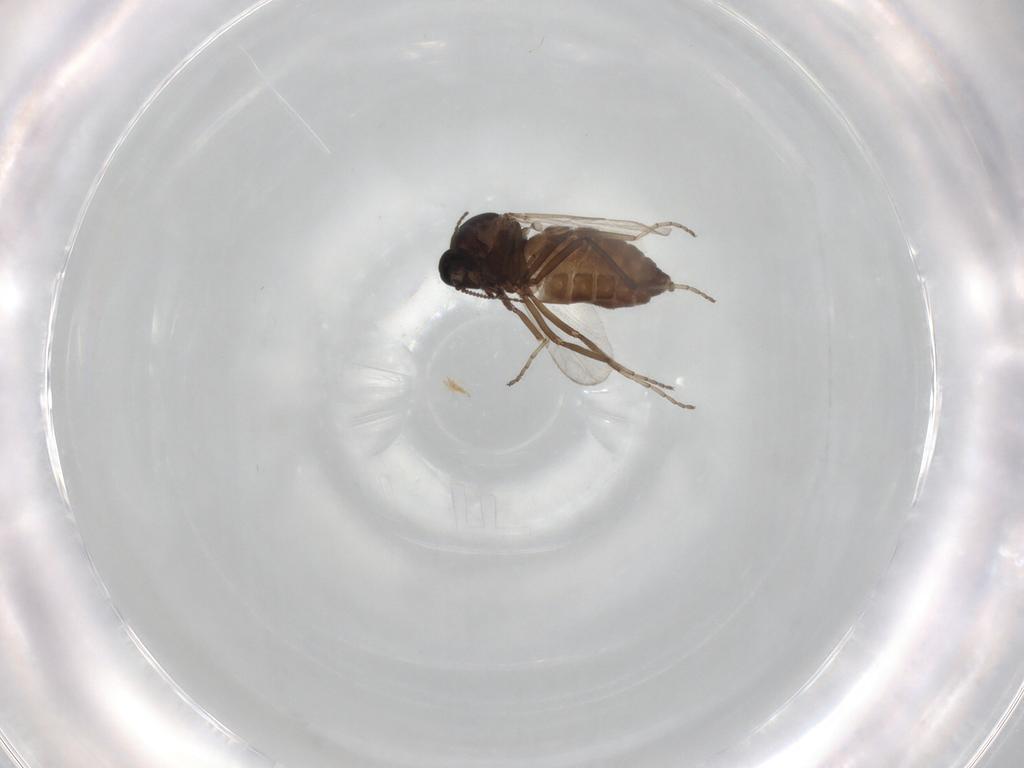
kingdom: Animalia
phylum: Arthropoda
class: Insecta
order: Diptera
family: Ceratopogonidae
